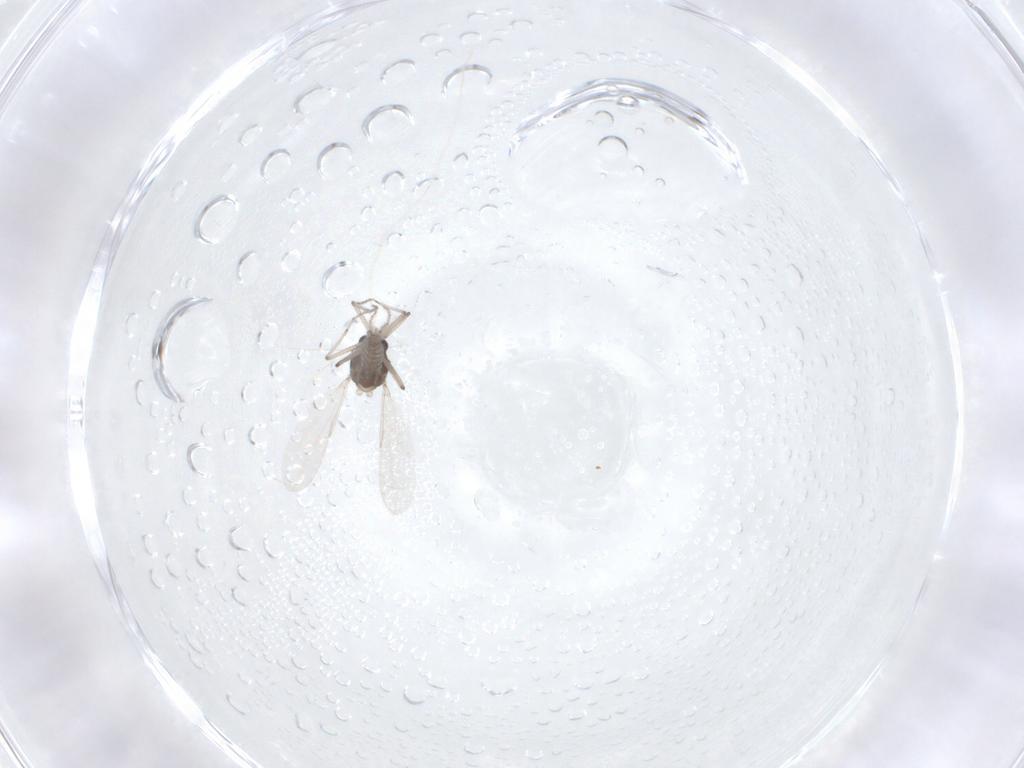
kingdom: Animalia
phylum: Arthropoda
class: Insecta
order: Diptera
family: Ceratopogonidae
